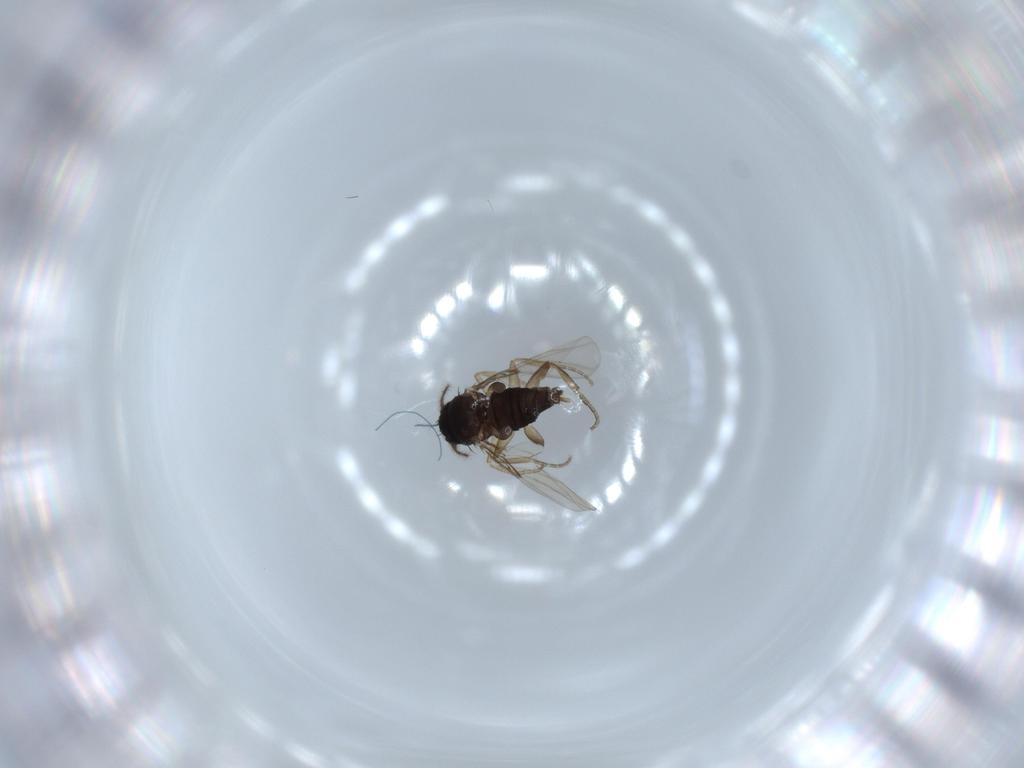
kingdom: Animalia
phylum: Arthropoda
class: Insecta
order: Diptera
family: Phoridae
